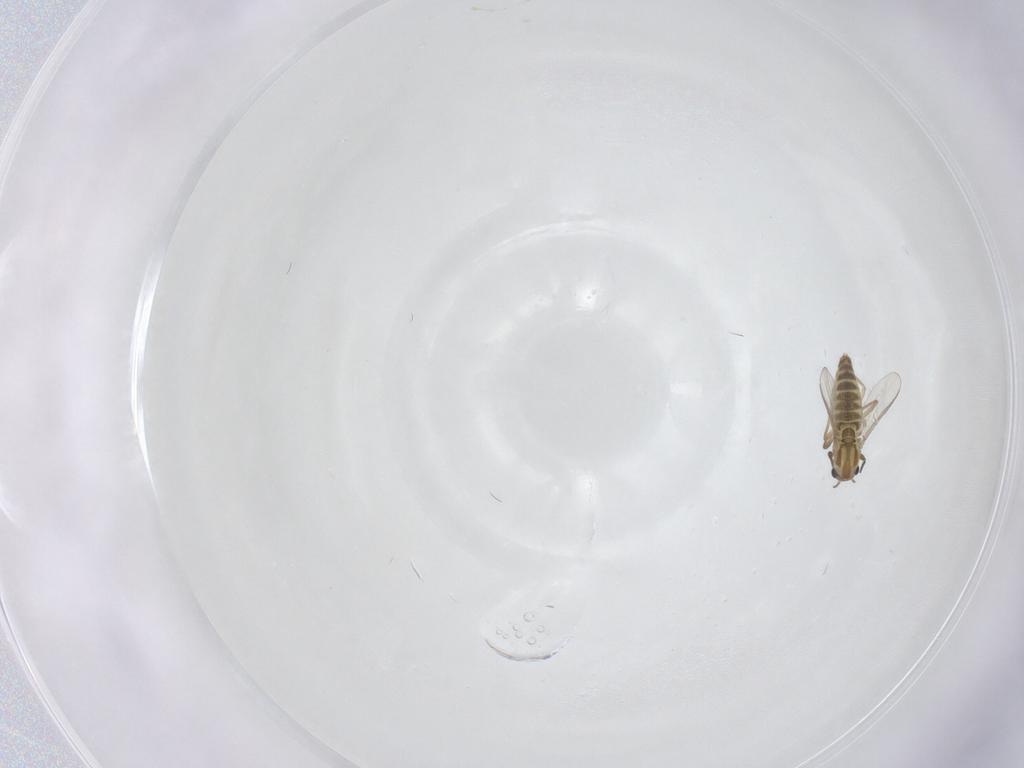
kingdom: Animalia
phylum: Arthropoda
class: Insecta
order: Diptera
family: Chironomidae
